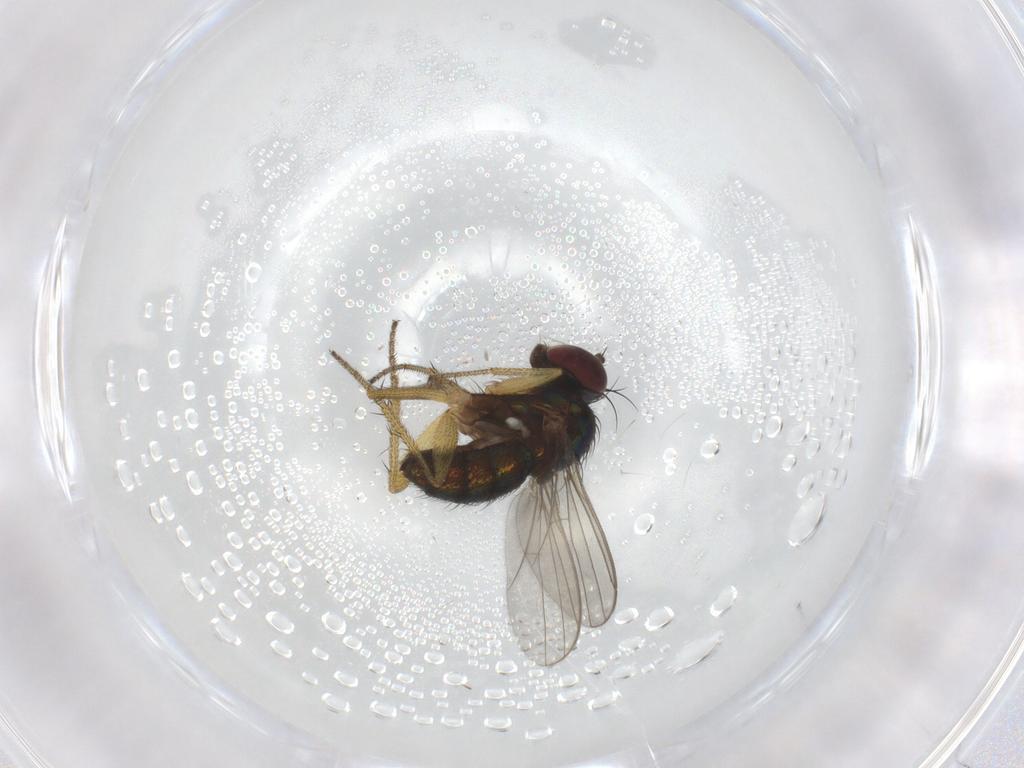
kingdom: Animalia
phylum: Arthropoda
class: Insecta
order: Diptera
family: Dolichopodidae
